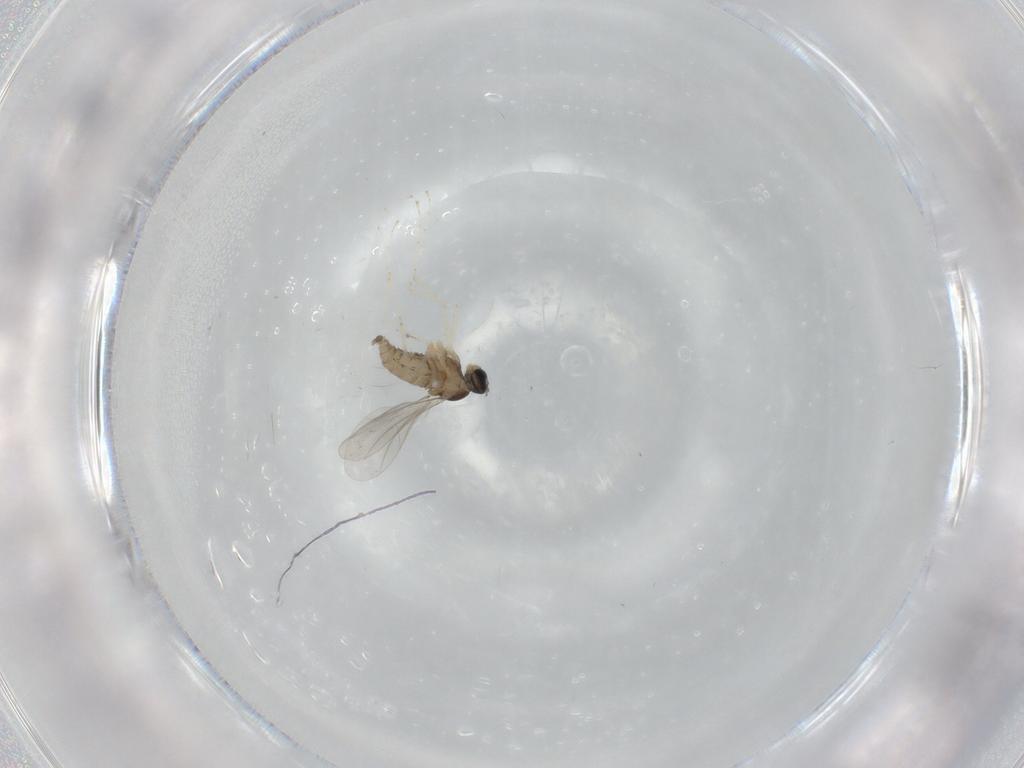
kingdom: Animalia
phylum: Arthropoda
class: Insecta
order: Diptera
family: Cecidomyiidae
